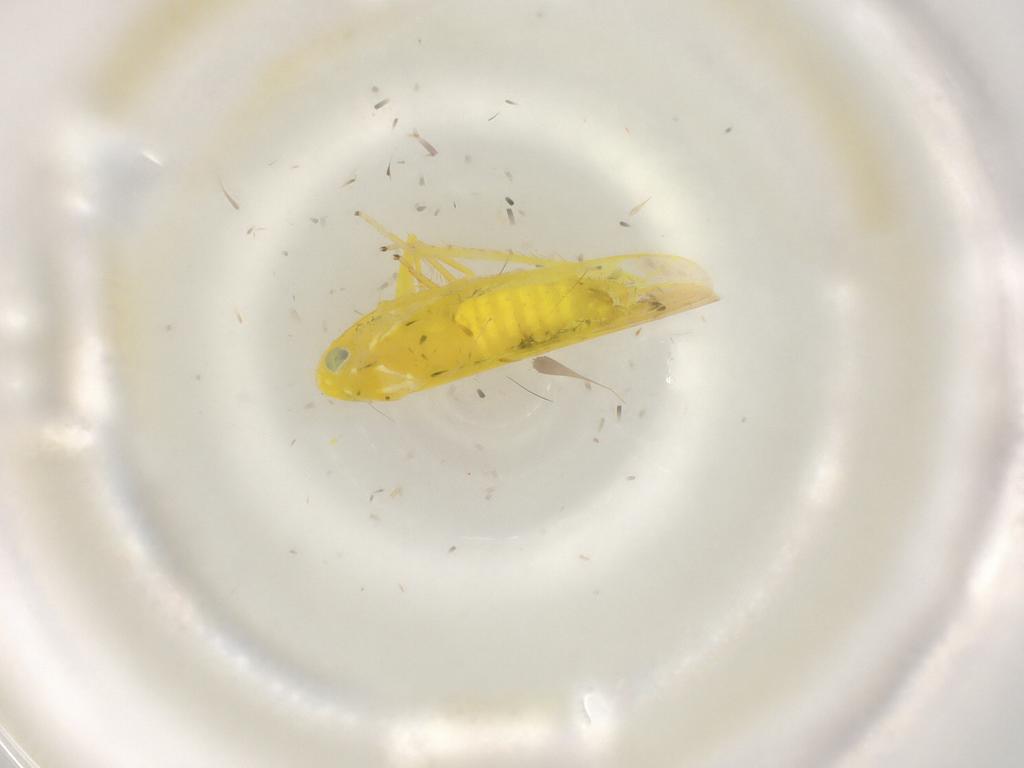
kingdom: Animalia
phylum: Arthropoda
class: Insecta
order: Hemiptera
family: Cicadellidae
